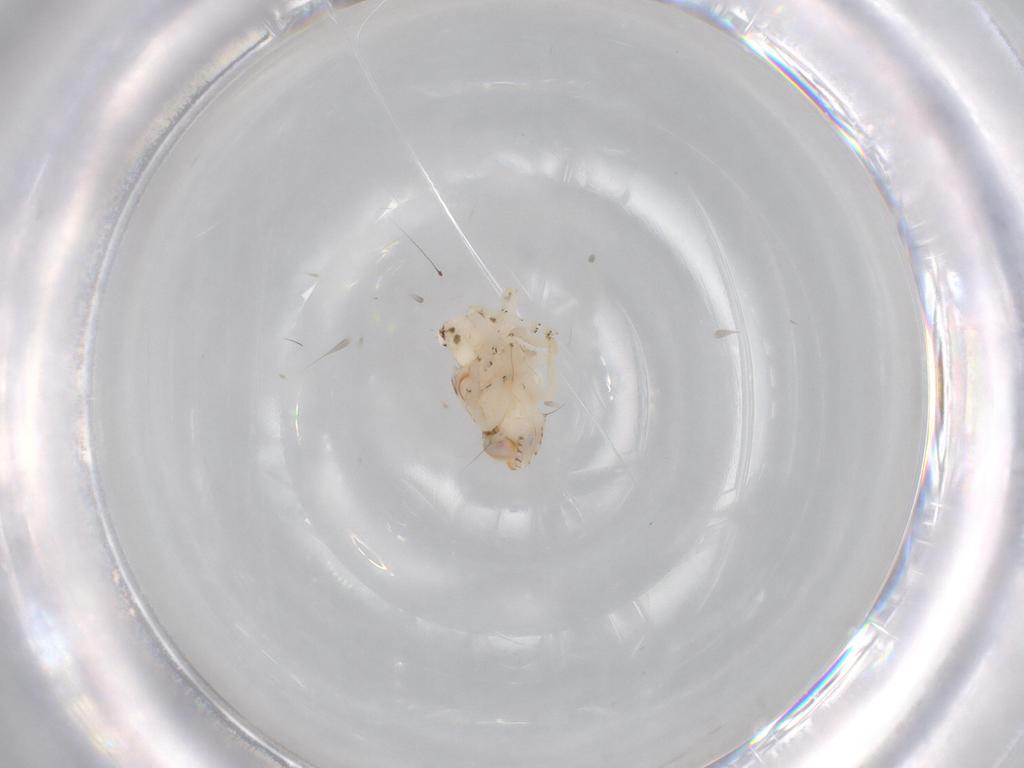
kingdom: Animalia
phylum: Arthropoda
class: Insecta
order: Hemiptera
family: Nogodinidae
